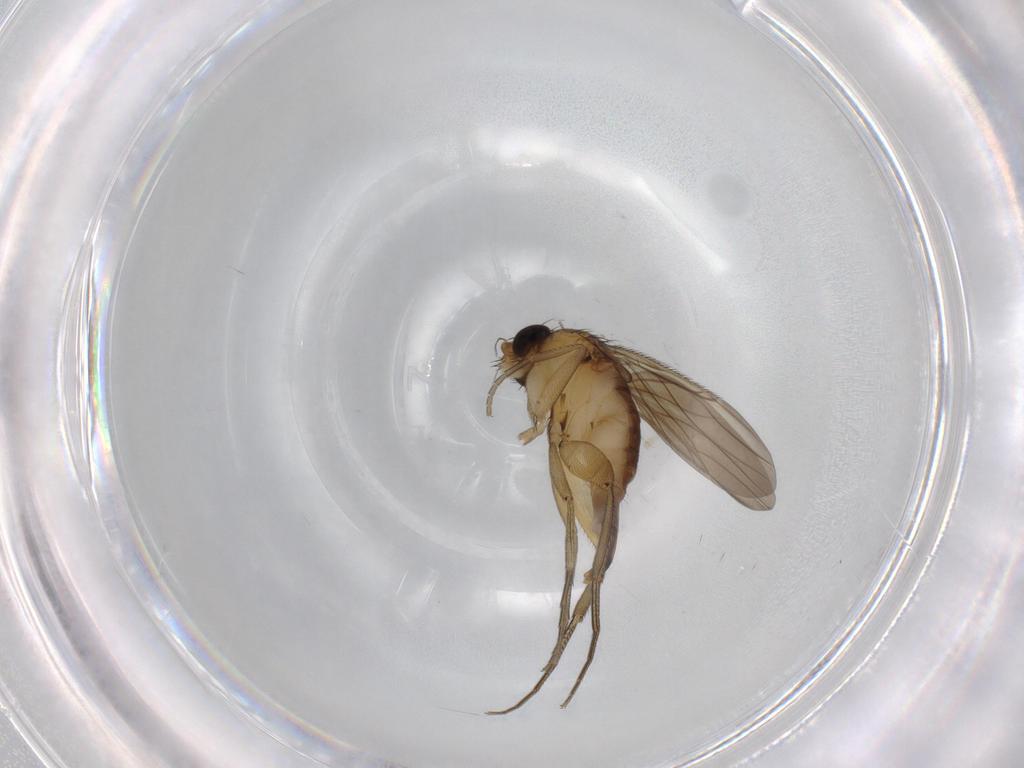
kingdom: Animalia
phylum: Arthropoda
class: Insecta
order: Diptera
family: Phoridae
